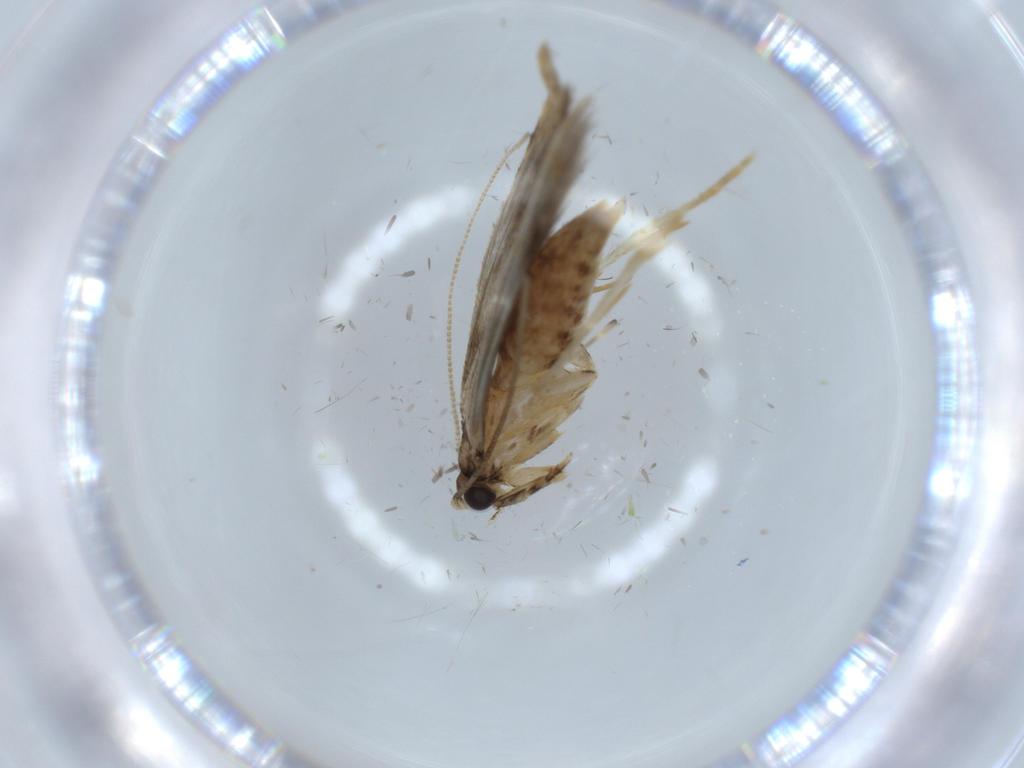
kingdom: Animalia
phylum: Arthropoda
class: Insecta
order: Lepidoptera
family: Tineidae
